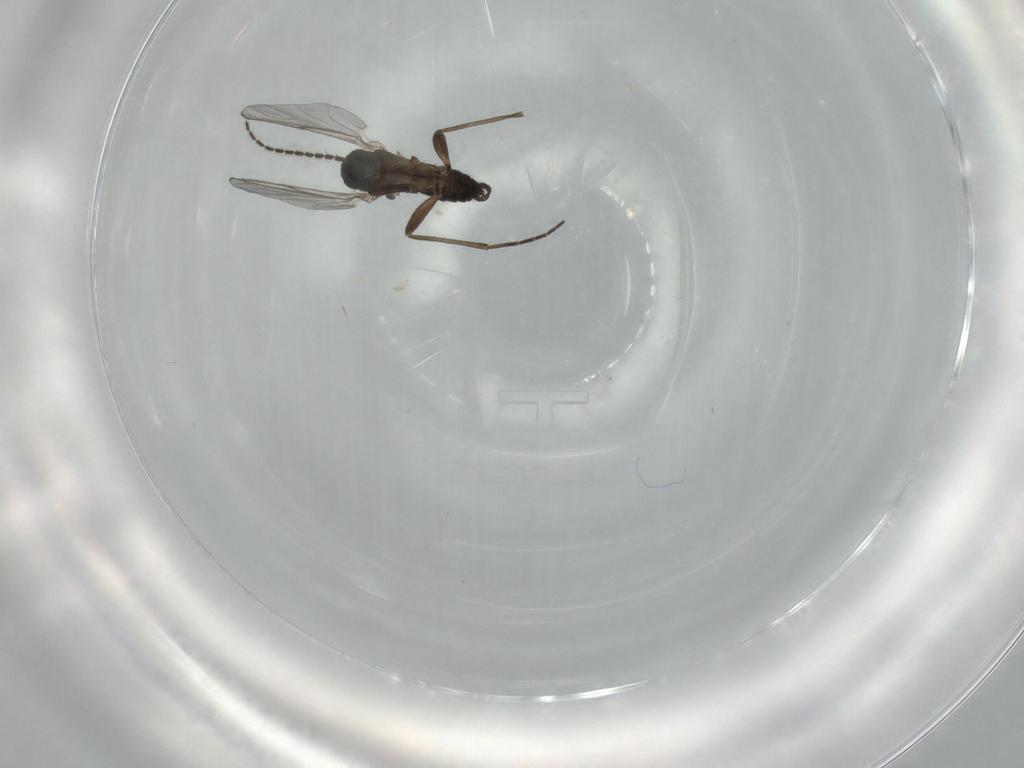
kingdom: Animalia
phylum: Arthropoda
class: Insecta
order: Diptera
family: Sciaridae
